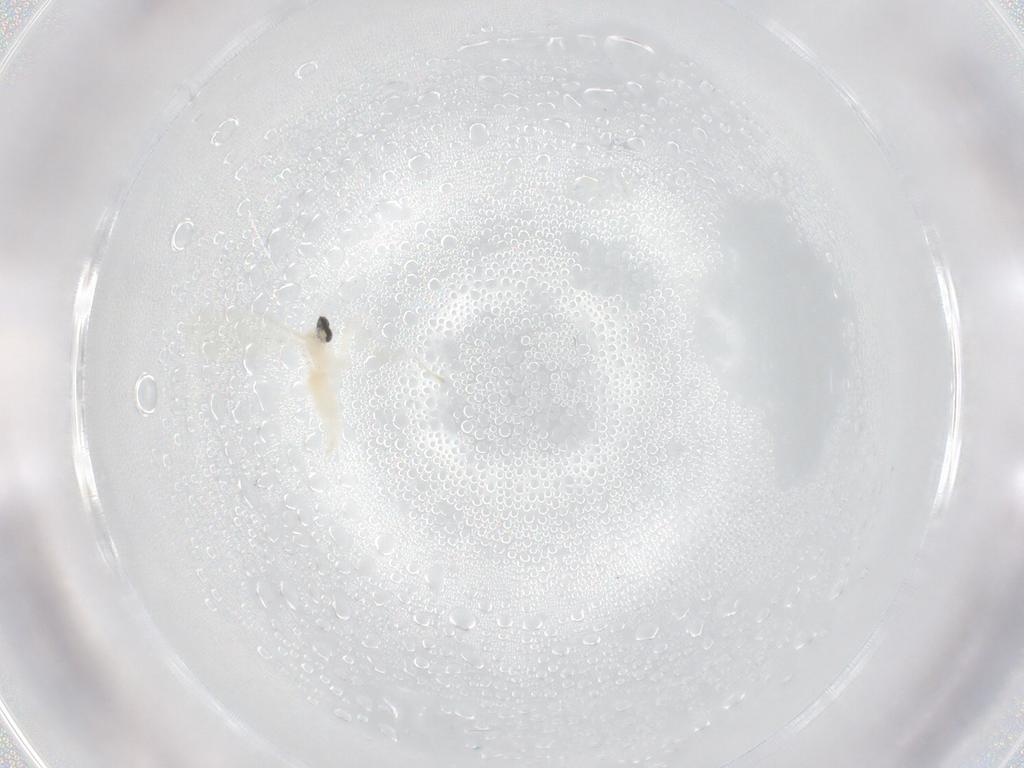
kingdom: Animalia
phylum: Arthropoda
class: Insecta
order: Diptera
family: Cecidomyiidae
